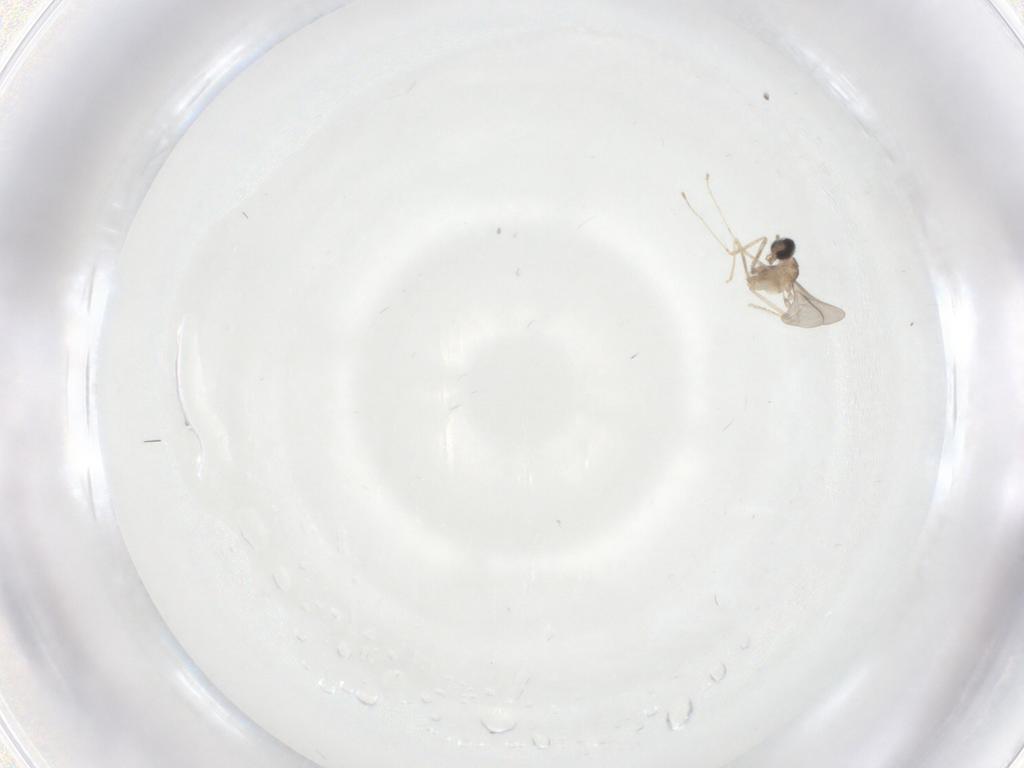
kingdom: Animalia
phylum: Arthropoda
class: Insecta
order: Diptera
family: Cecidomyiidae
